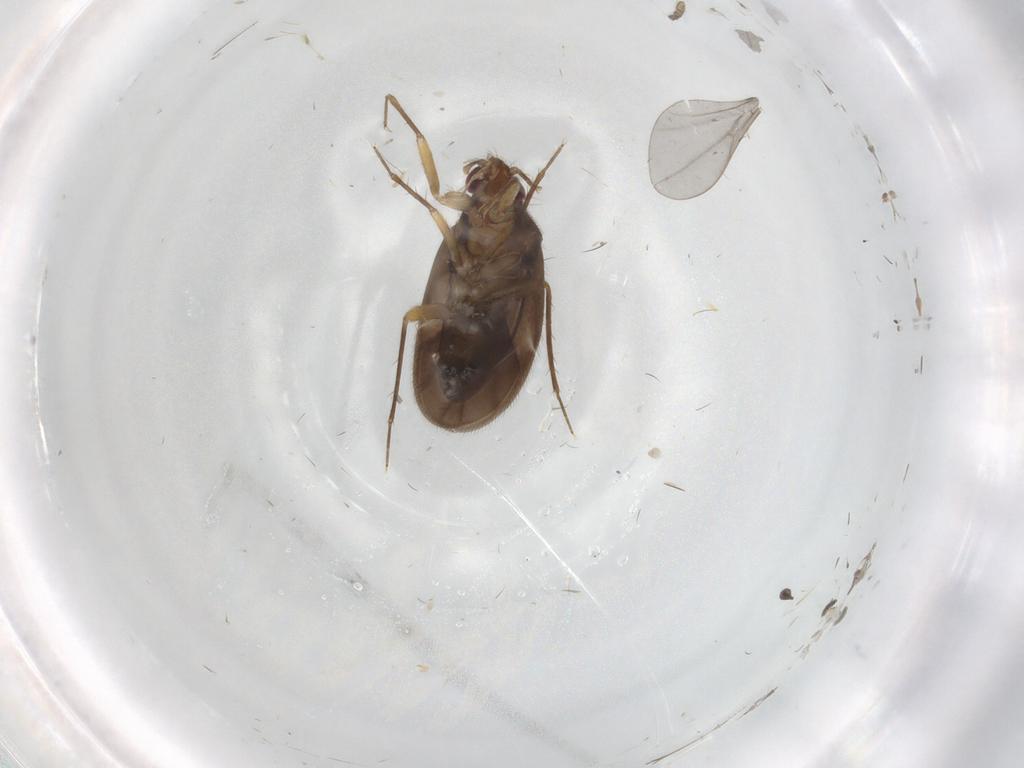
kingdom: Animalia
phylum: Arthropoda
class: Insecta
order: Hemiptera
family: Ceratocombidae
